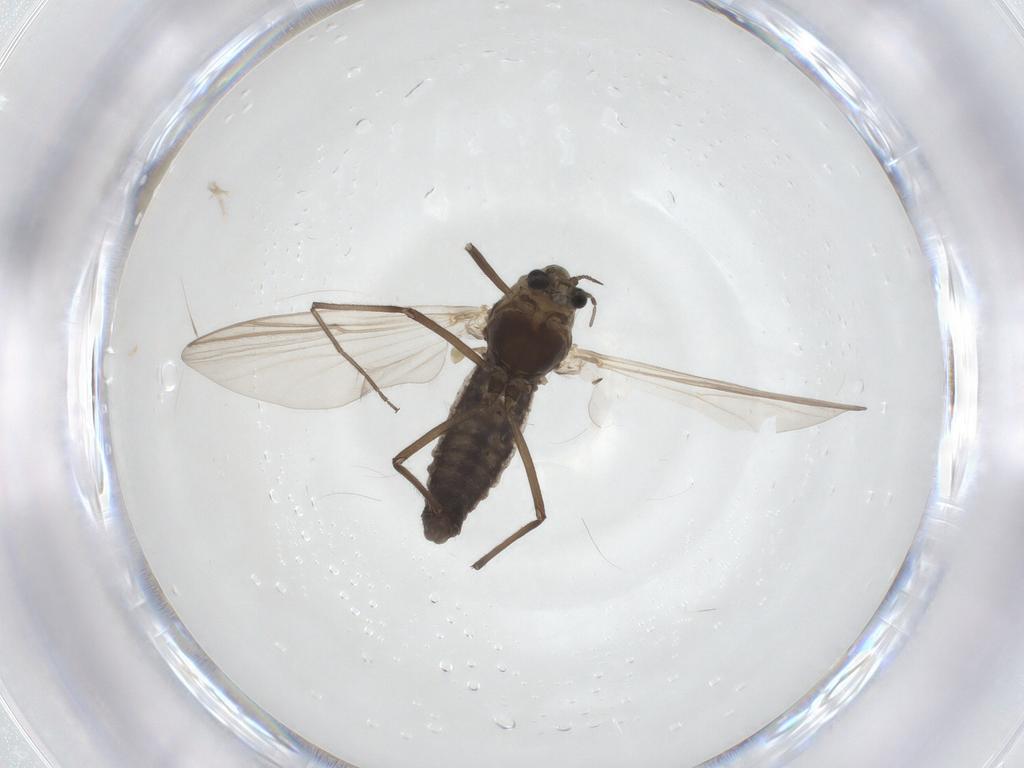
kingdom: Animalia
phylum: Arthropoda
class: Insecta
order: Diptera
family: Chironomidae
